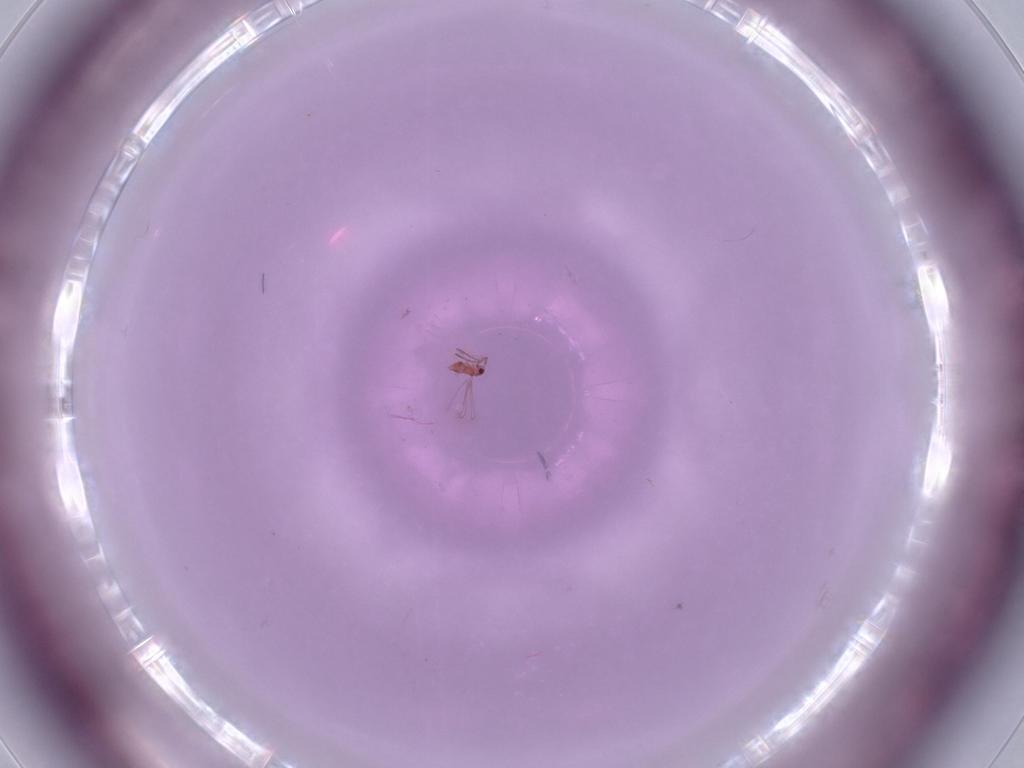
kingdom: Animalia
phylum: Arthropoda
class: Insecta
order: Hymenoptera
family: Mymaridae
